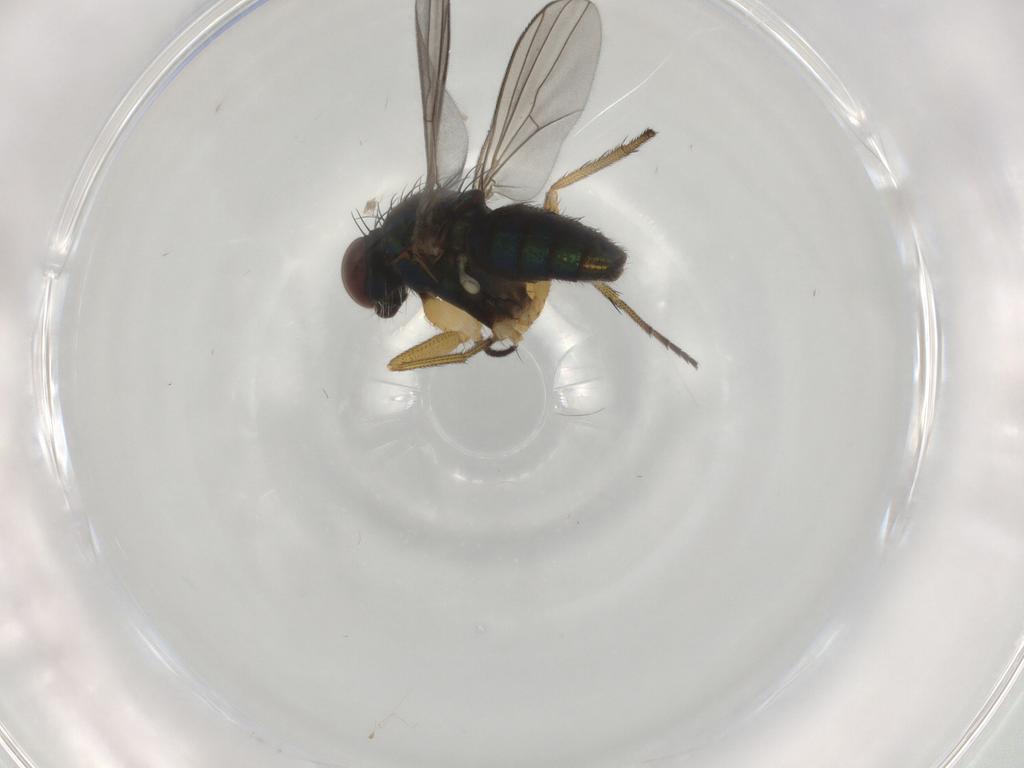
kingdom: Animalia
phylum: Arthropoda
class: Insecta
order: Diptera
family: Dolichopodidae
